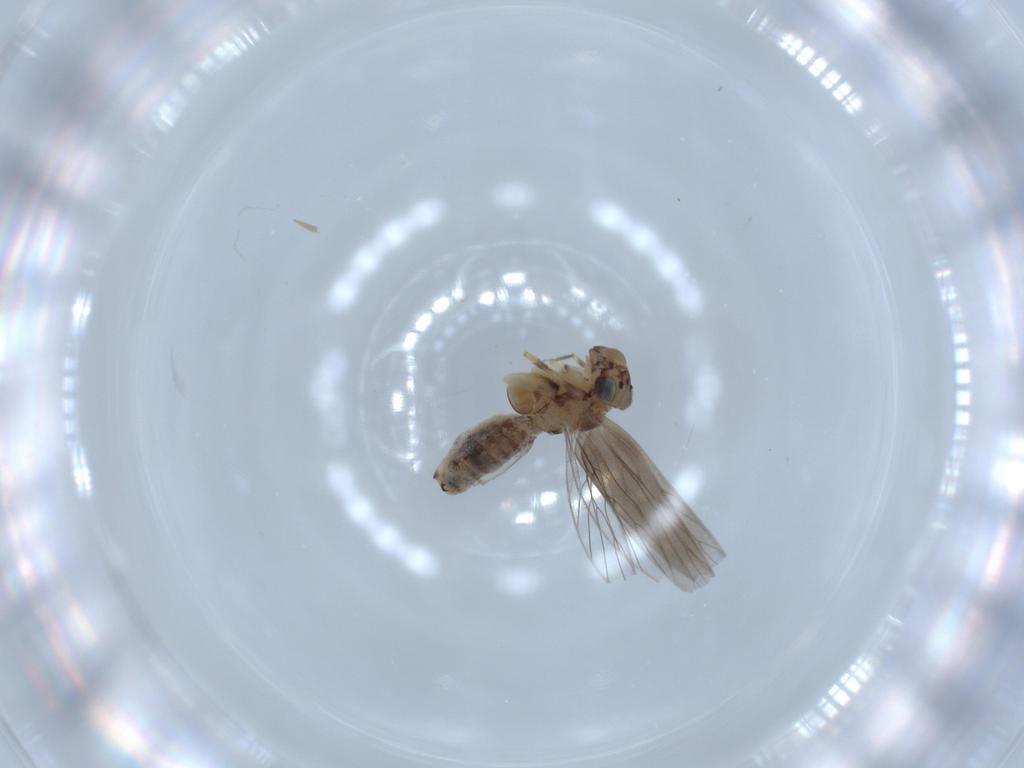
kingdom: Animalia
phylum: Arthropoda
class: Insecta
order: Psocodea
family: Lepidopsocidae
